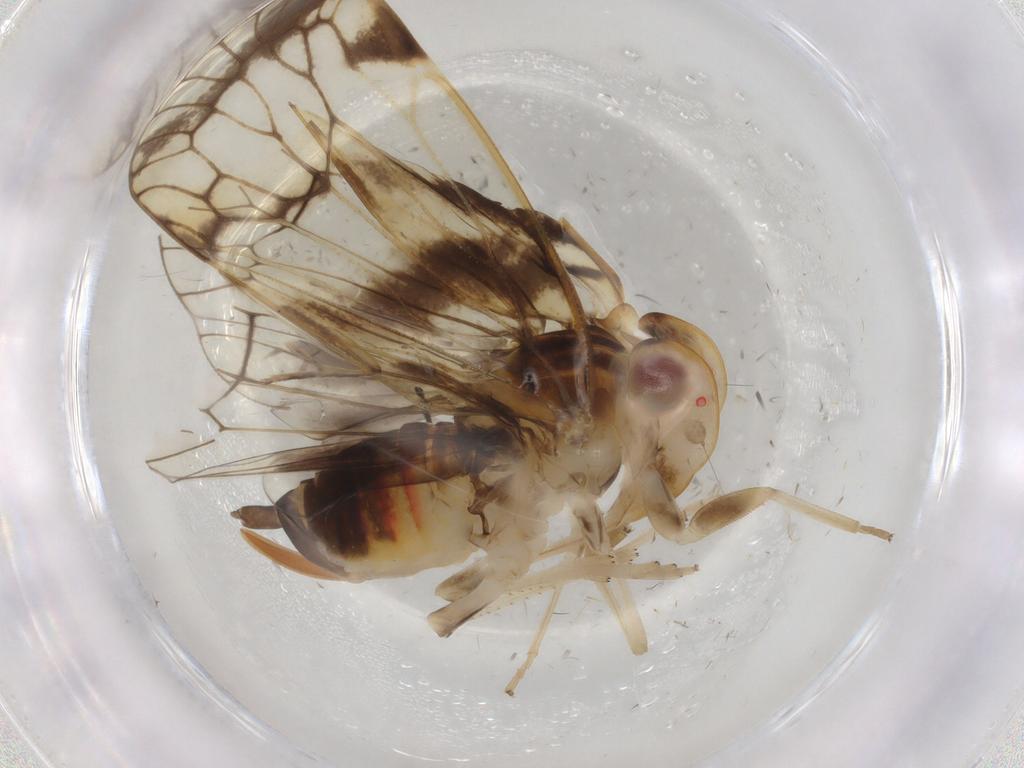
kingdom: Animalia
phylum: Arthropoda
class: Insecta
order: Hemiptera
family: Cixiidae
